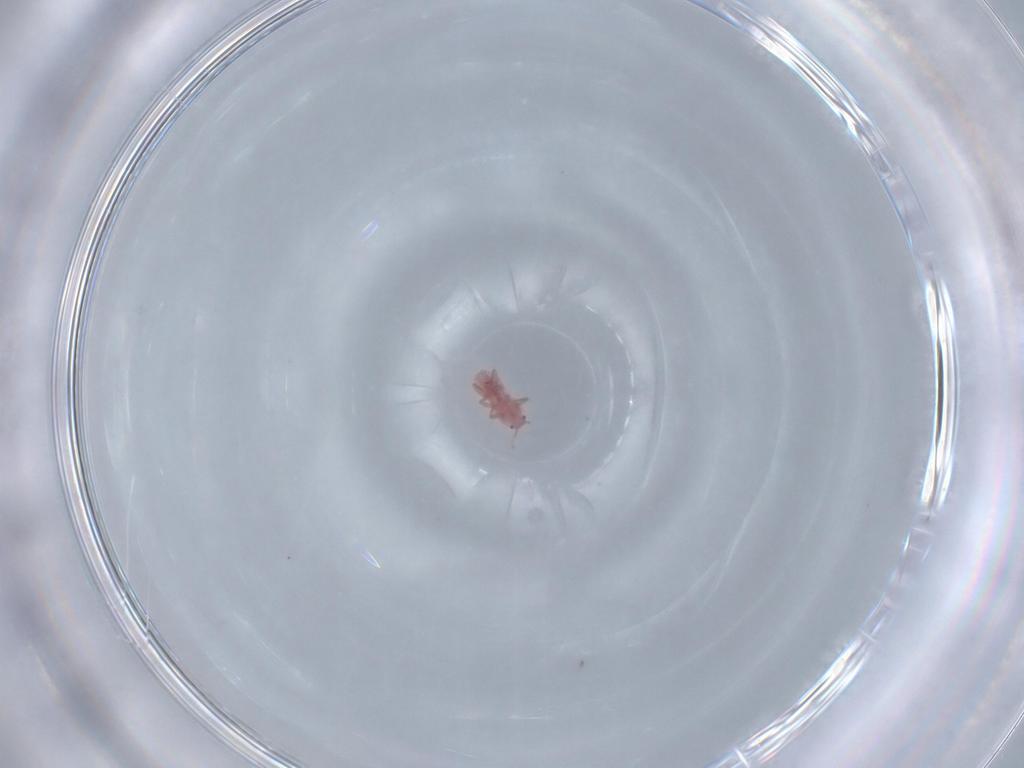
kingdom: Animalia
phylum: Arthropoda
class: Insecta
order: Hemiptera
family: Pseudococcidae
